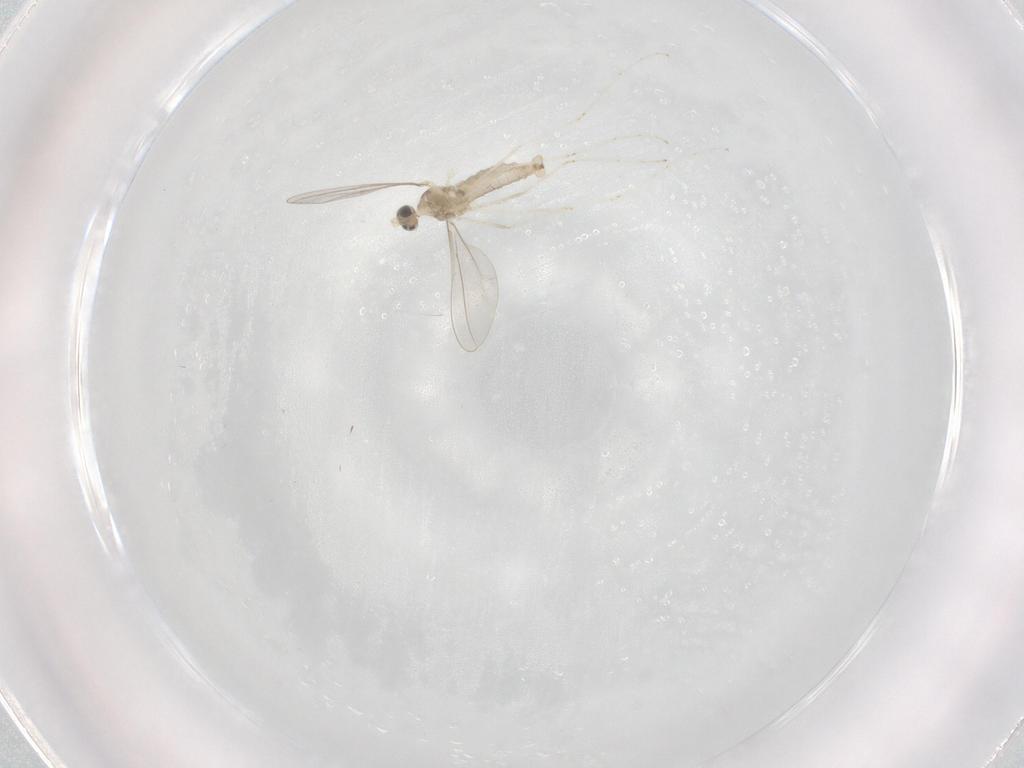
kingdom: Animalia
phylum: Arthropoda
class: Insecta
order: Diptera
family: Cecidomyiidae
